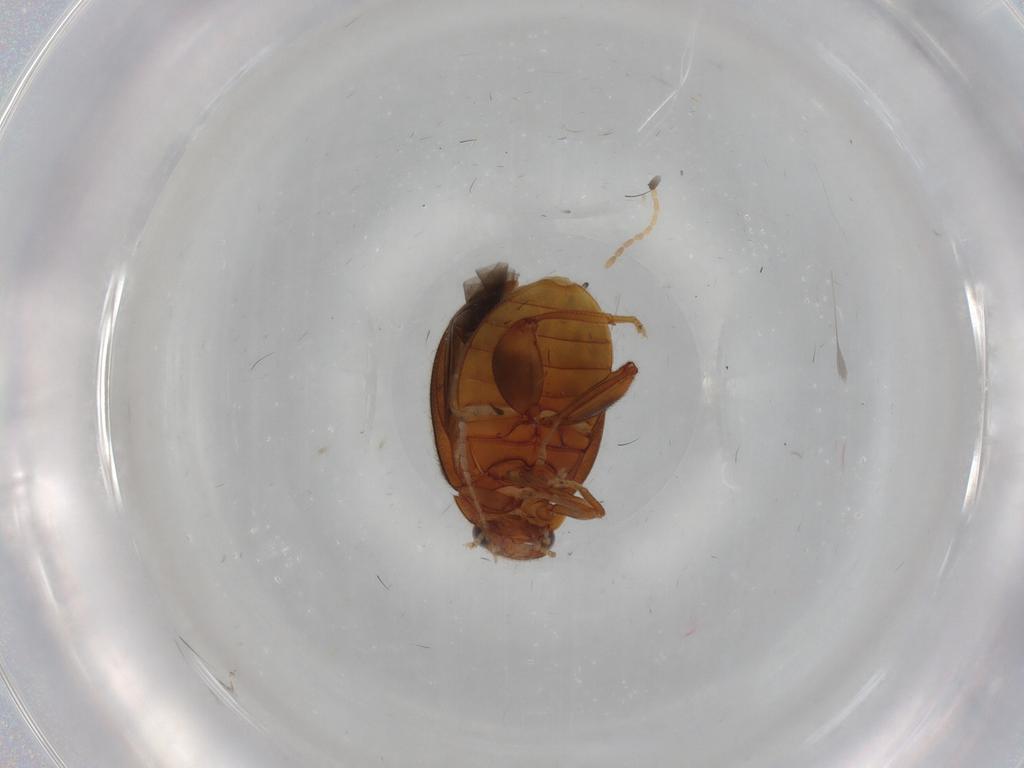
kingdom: Animalia
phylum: Arthropoda
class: Insecta
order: Coleoptera
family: Scirtidae
